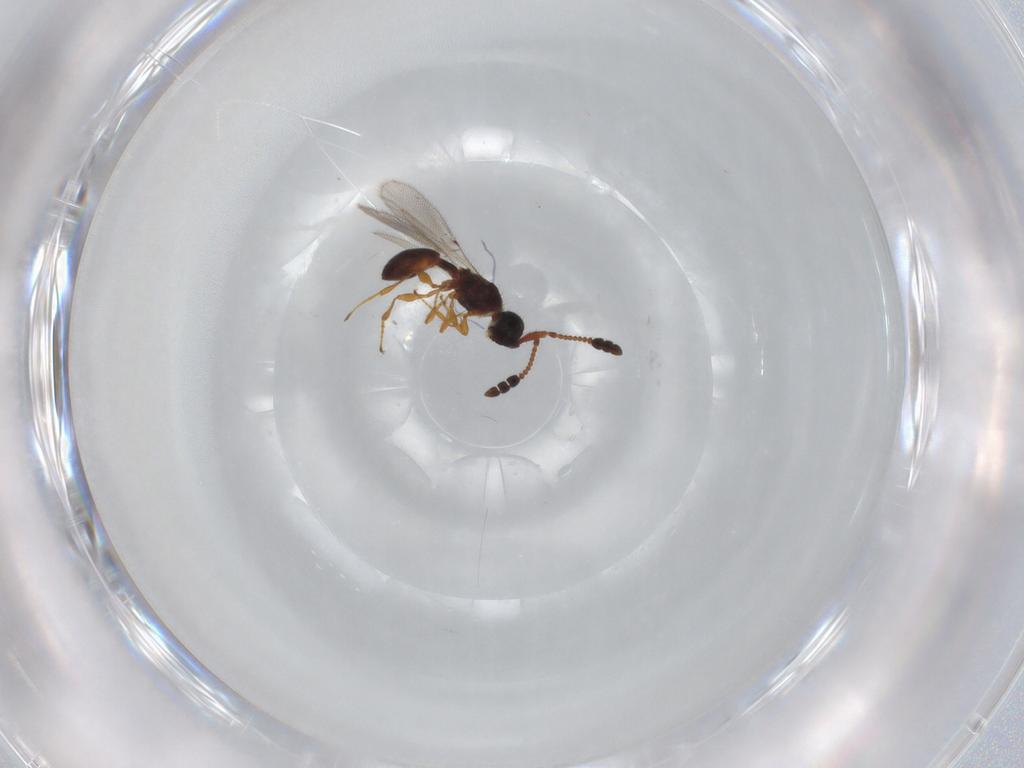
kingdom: Animalia
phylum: Arthropoda
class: Insecta
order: Hymenoptera
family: Diapriidae
